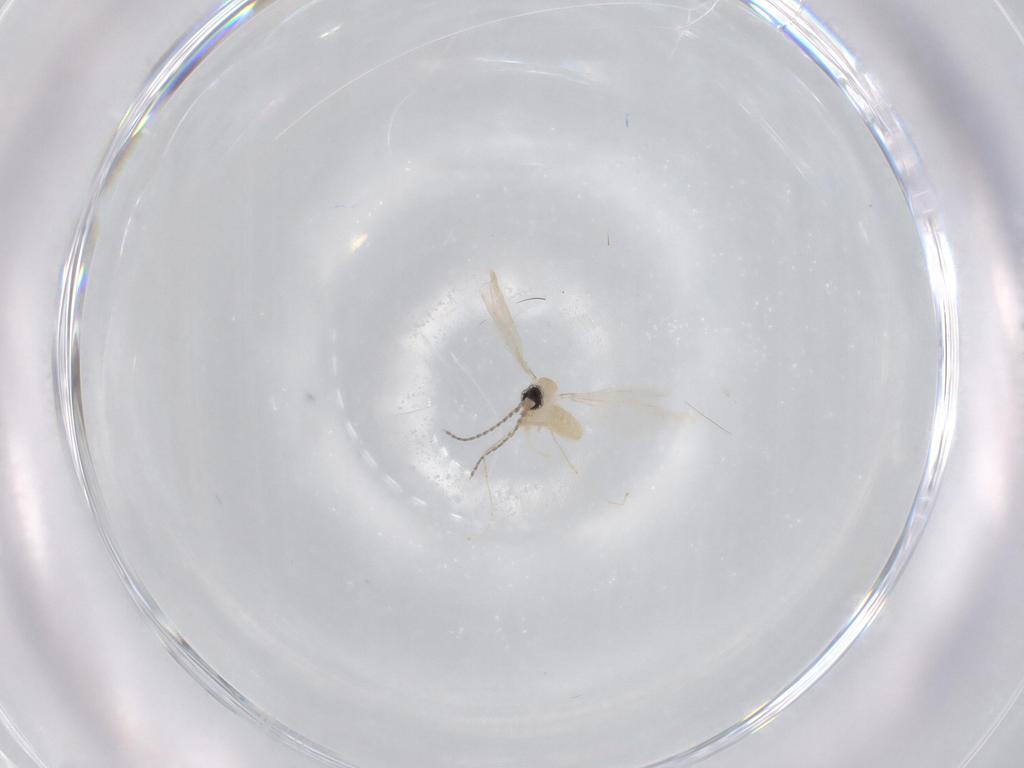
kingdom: Animalia
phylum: Arthropoda
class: Insecta
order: Diptera
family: Cecidomyiidae
